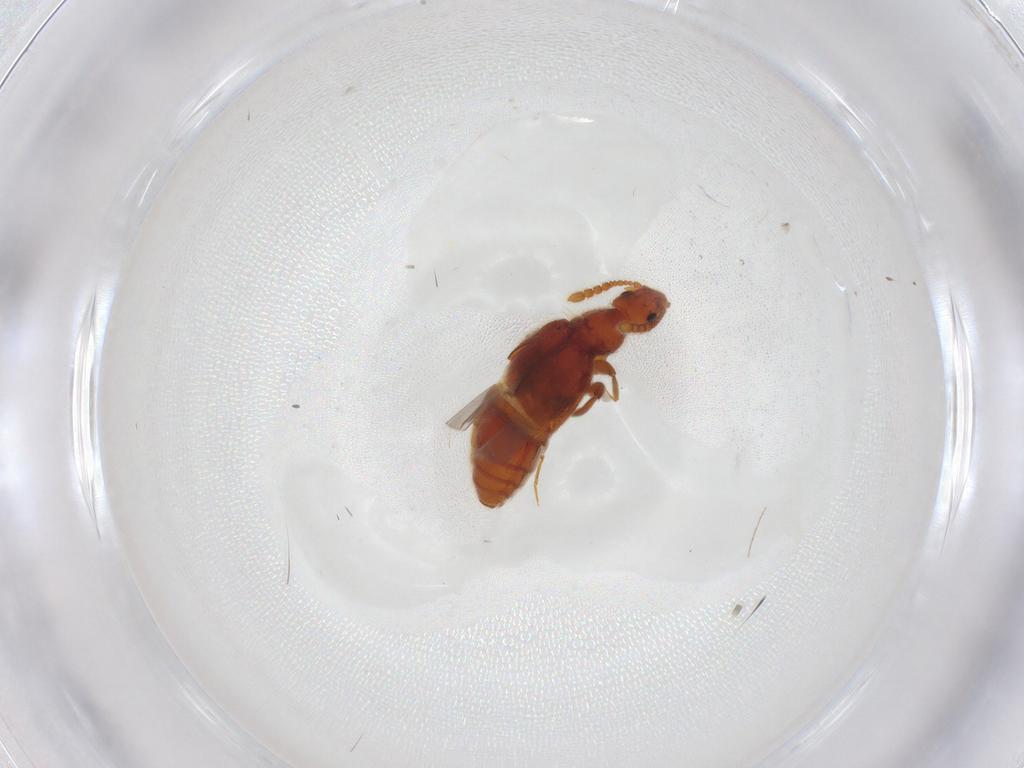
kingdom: Animalia
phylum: Arthropoda
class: Insecta
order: Coleoptera
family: Staphylinidae
